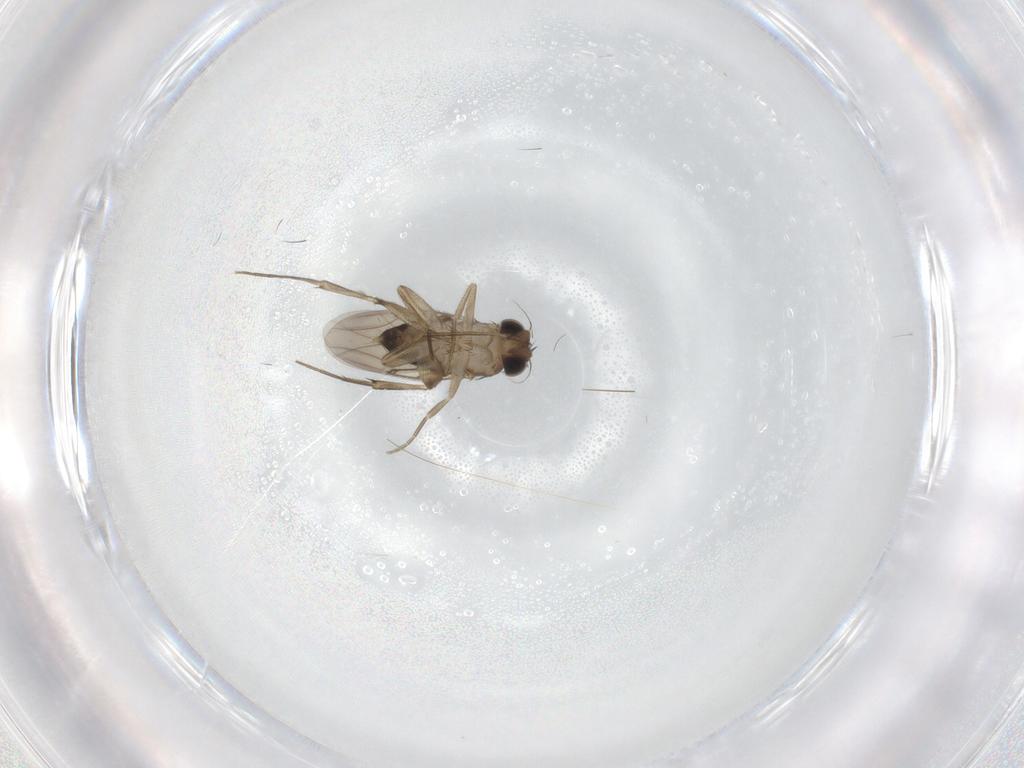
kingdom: Animalia
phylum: Arthropoda
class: Insecta
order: Diptera
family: Phoridae
